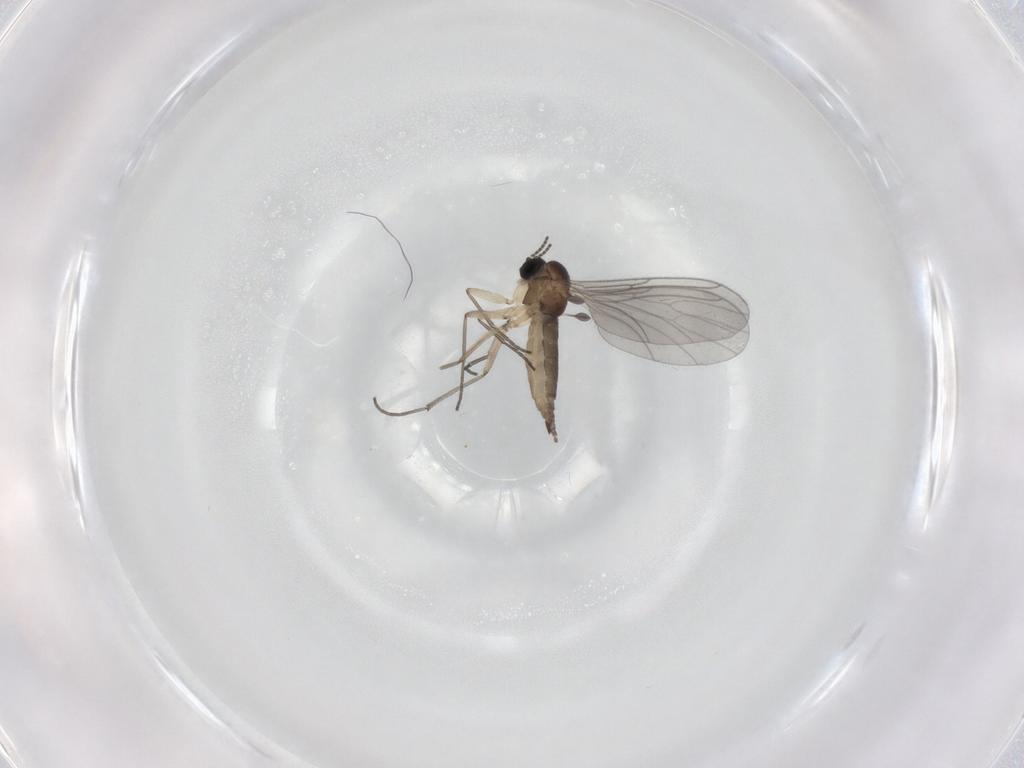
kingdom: Animalia
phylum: Arthropoda
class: Insecta
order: Diptera
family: Sciaridae
